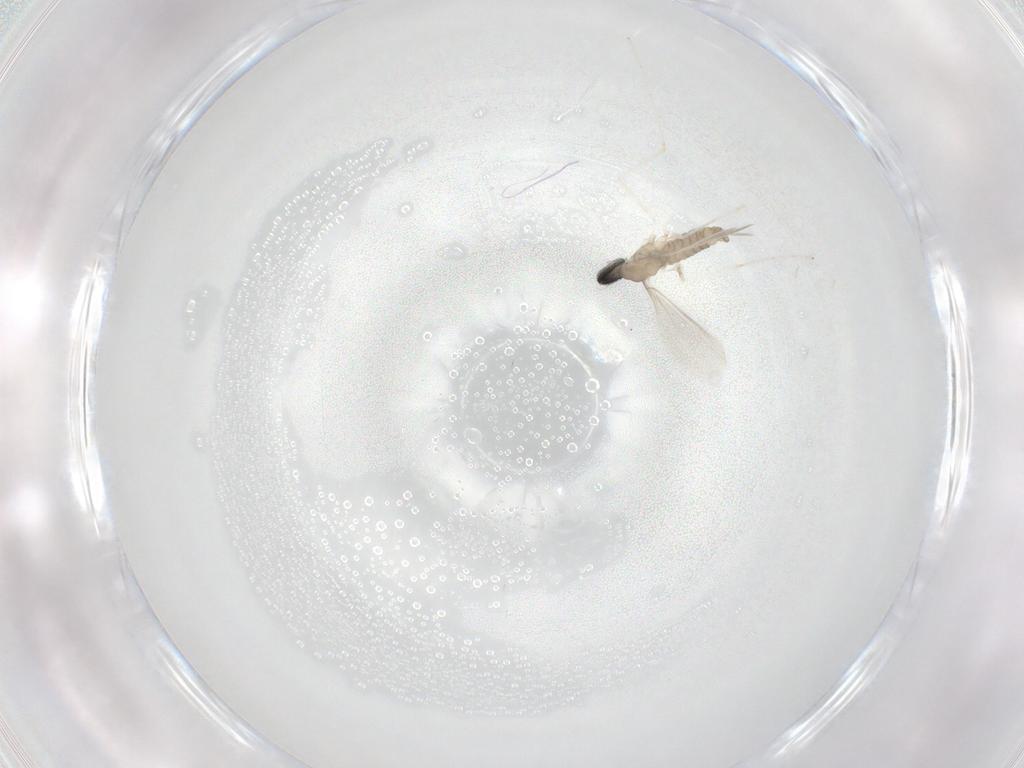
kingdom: Animalia
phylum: Arthropoda
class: Insecta
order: Diptera
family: Cecidomyiidae
